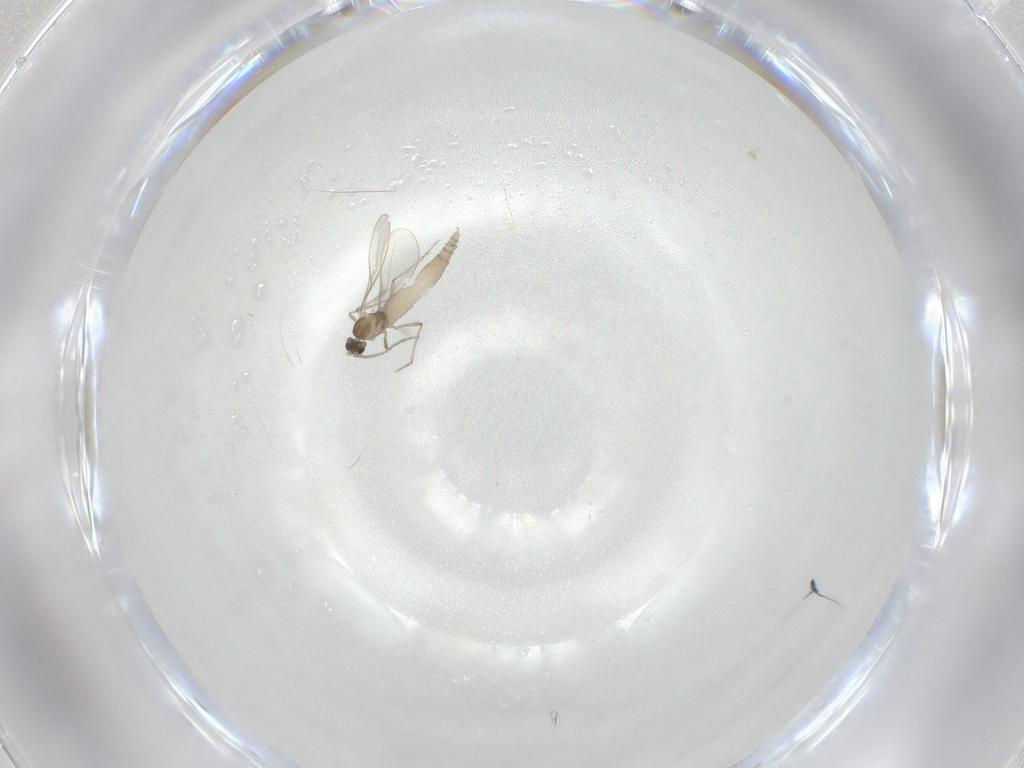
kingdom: Animalia
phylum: Arthropoda
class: Insecta
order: Diptera
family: Cecidomyiidae
